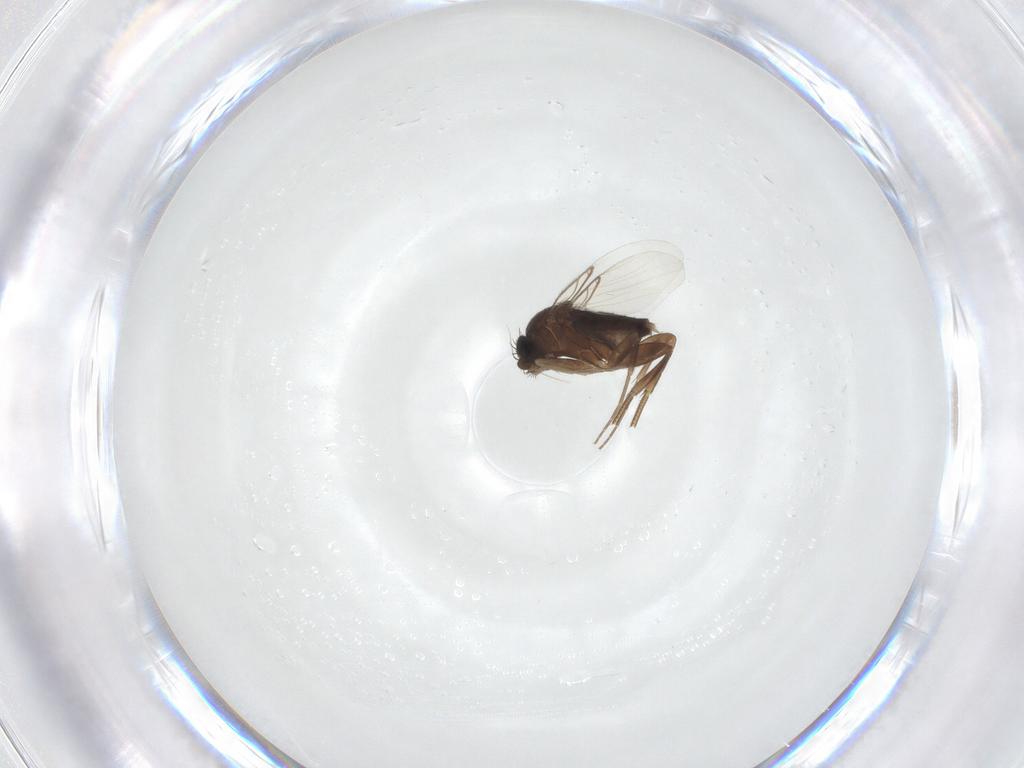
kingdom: Animalia
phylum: Arthropoda
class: Insecta
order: Diptera
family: Phoridae
